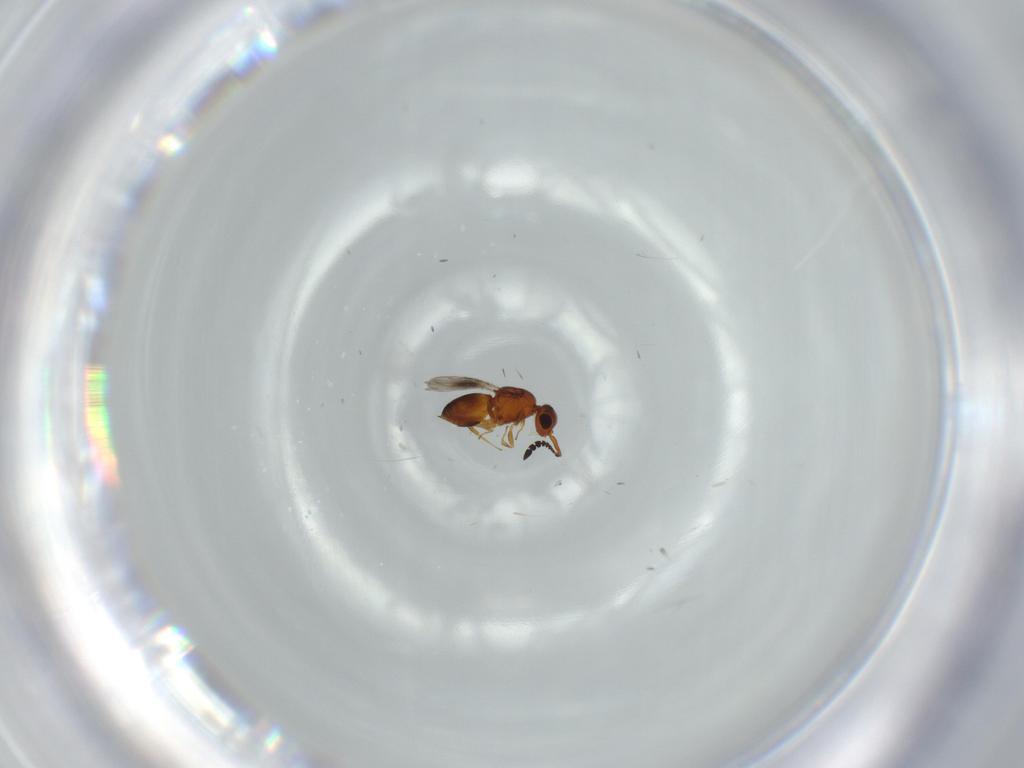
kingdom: Animalia
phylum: Arthropoda
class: Insecta
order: Hymenoptera
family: Ceraphronidae
